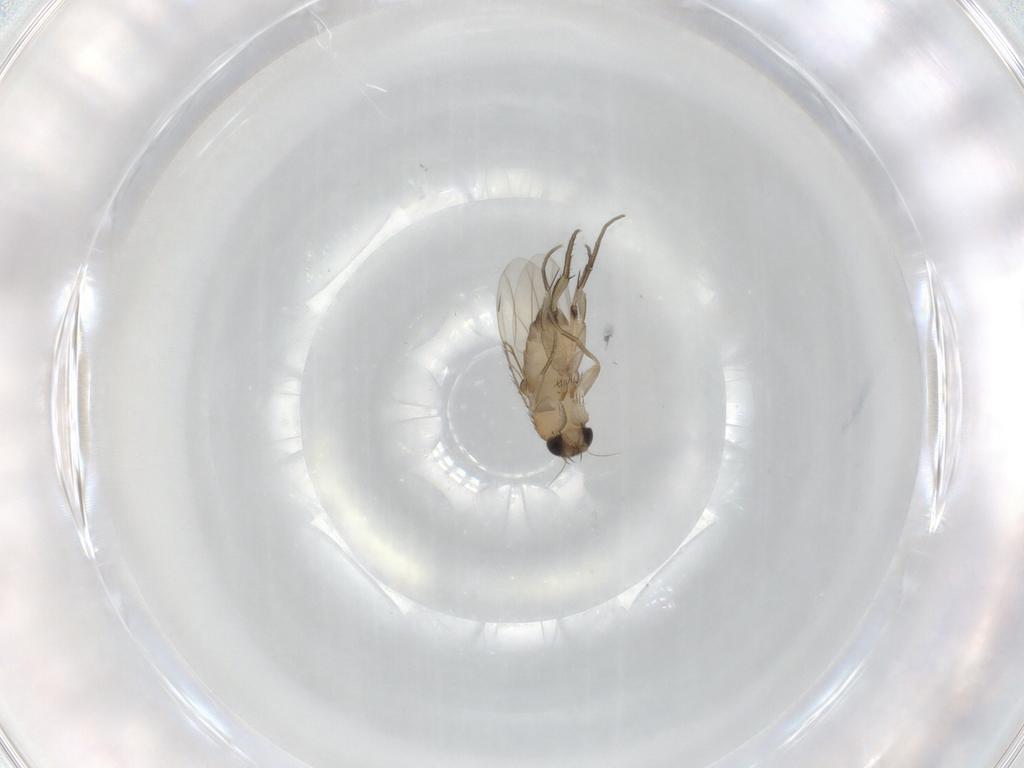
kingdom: Animalia
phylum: Arthropoda
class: Insecta
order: Diptera
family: Phoridae
